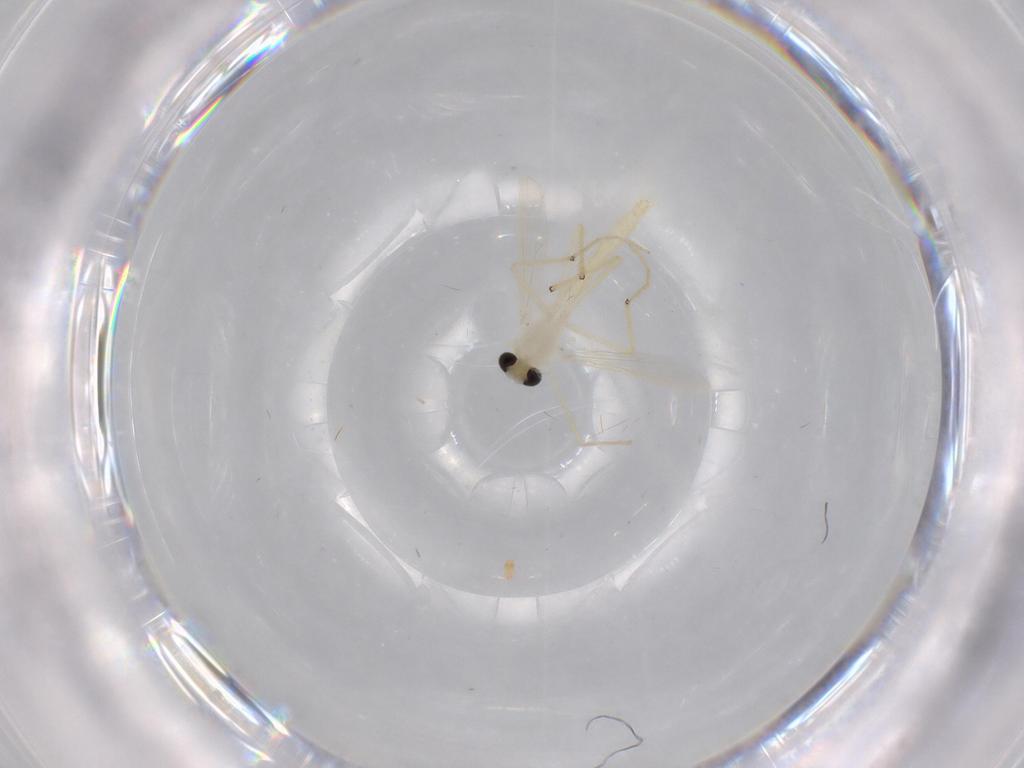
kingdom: Animalia
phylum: Arthropoda
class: Insecta
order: Diptera
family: Chironomidae
